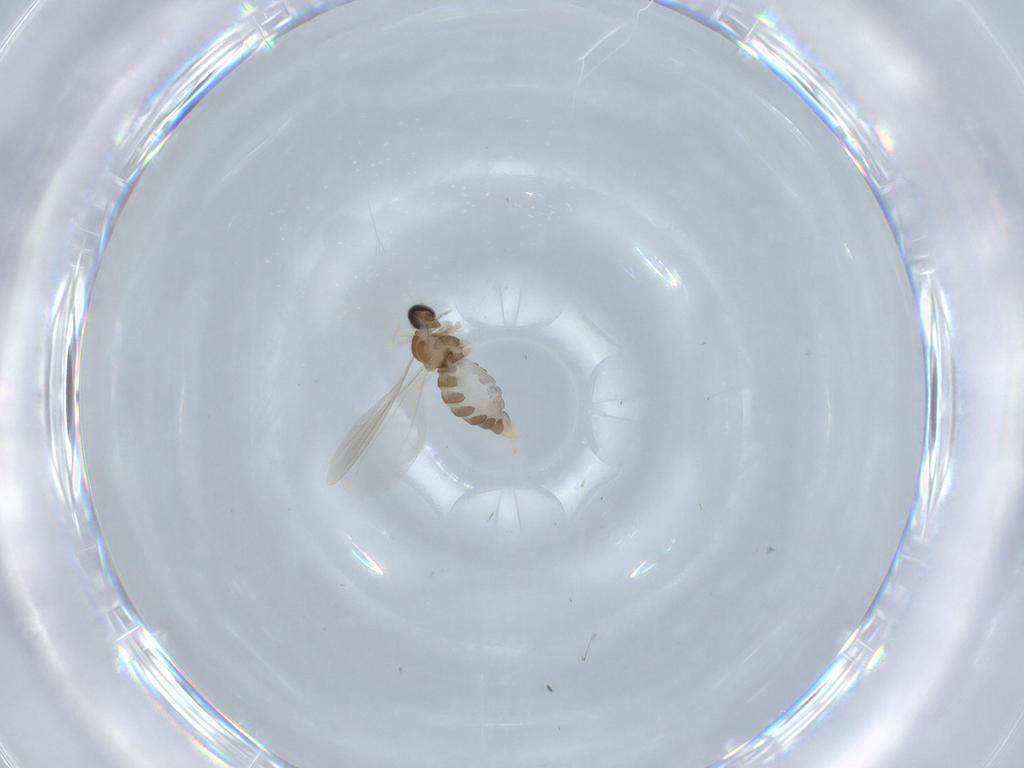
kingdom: Animalia
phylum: Arthropoda
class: Insecta
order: Diptera
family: Cecidomyiidae
